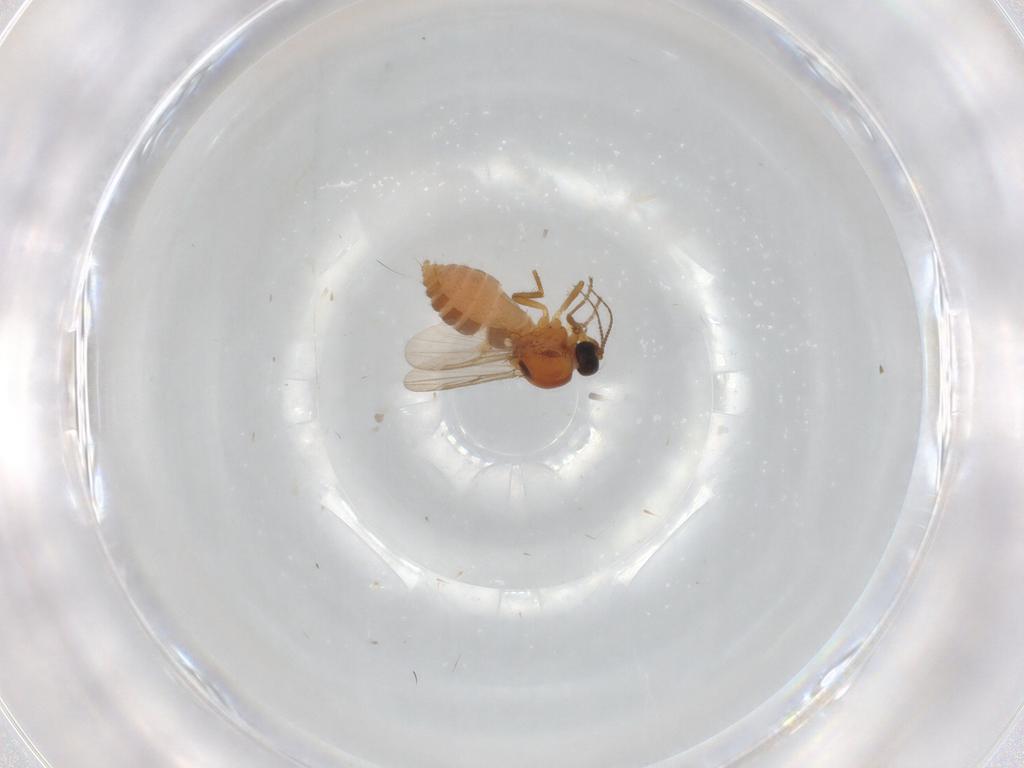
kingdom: Animalia
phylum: Arthropoda
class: Insecta
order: Diptera
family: Ceratopogonidae
